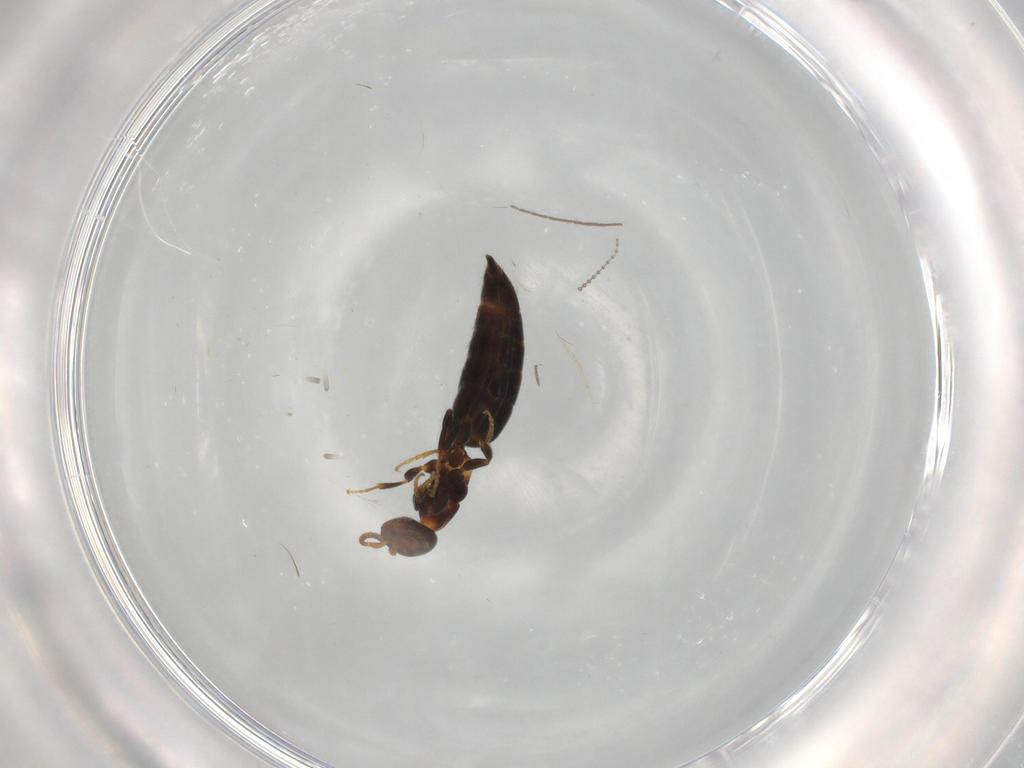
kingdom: Animalia
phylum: Arthropoda
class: Insecta
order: Hymenoptera
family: Bethylidae
